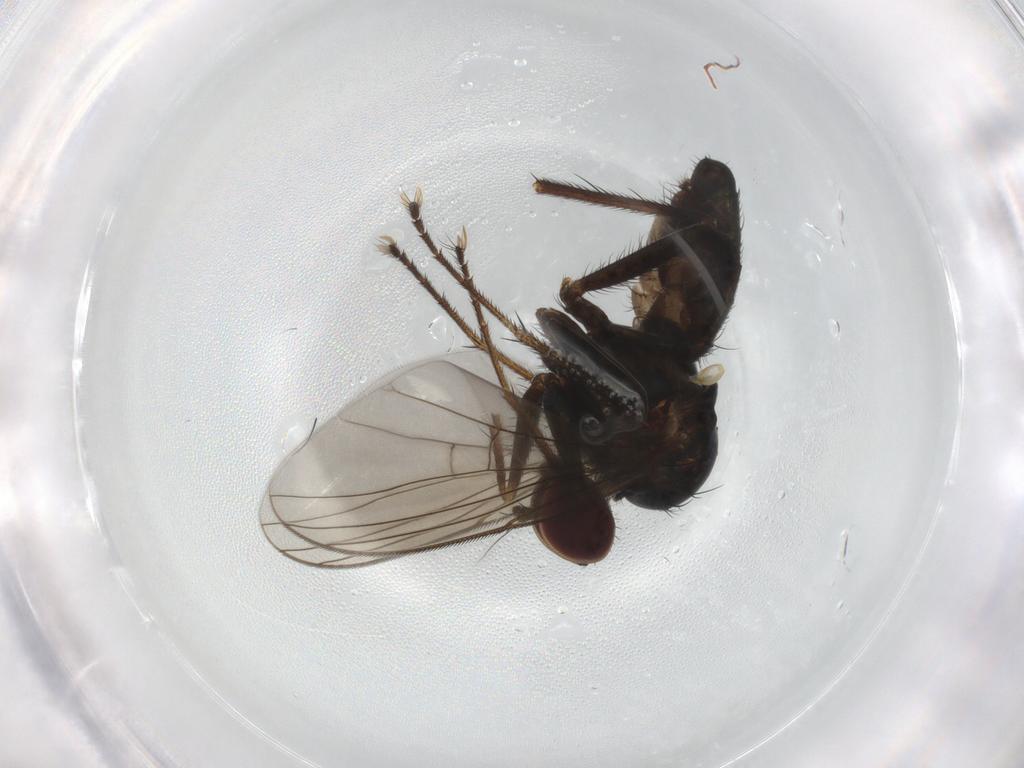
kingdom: Animalia
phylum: Arthropoda
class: Insecta
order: Diptera
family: Dolichopodidae
